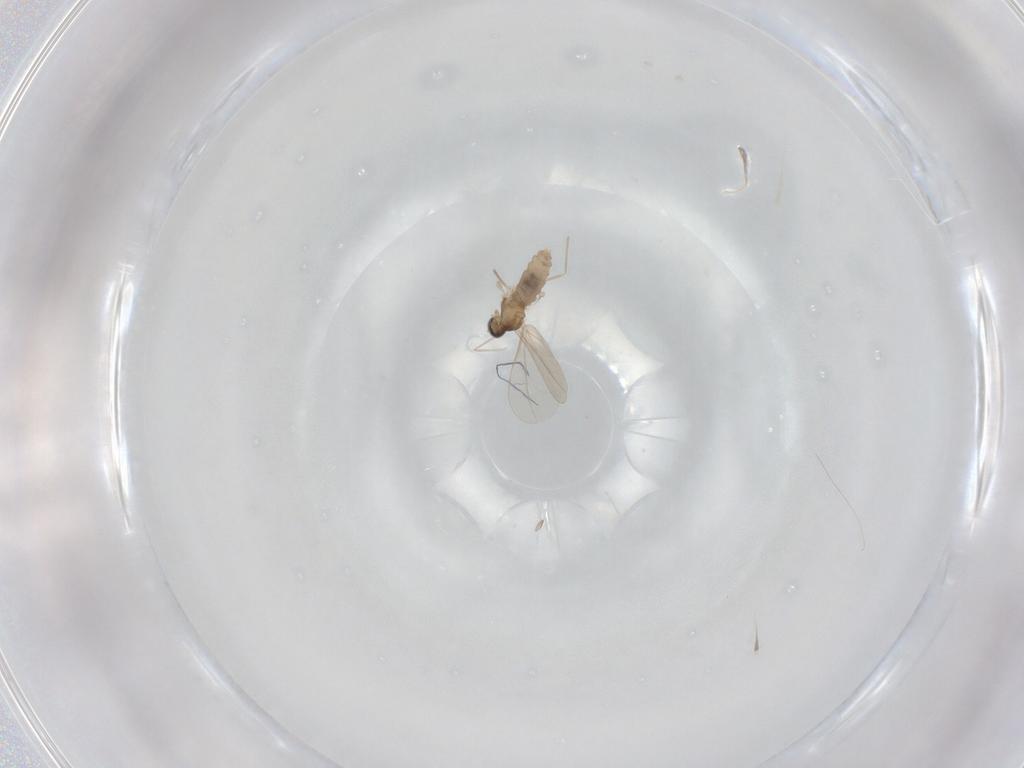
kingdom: Animalia
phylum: Arthropoda
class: Insecta
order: Diptera
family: Cecidomyiidae
